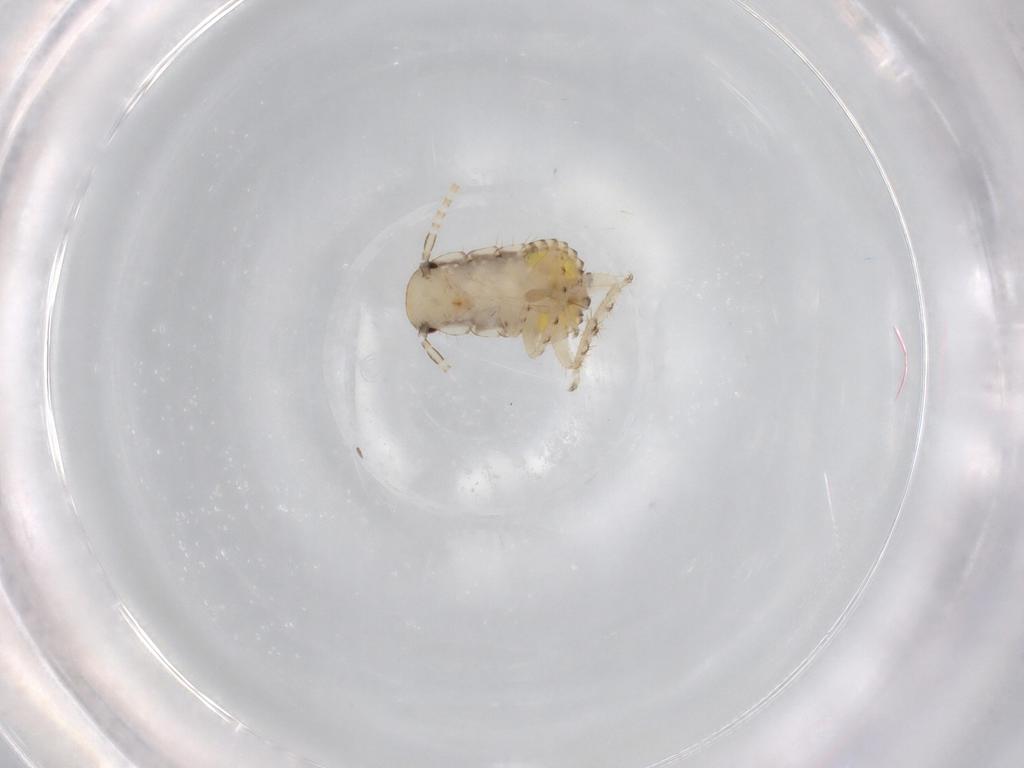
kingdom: Animalia
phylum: Arthropoda
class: Insecta
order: Blattodea
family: Ectobiidae
